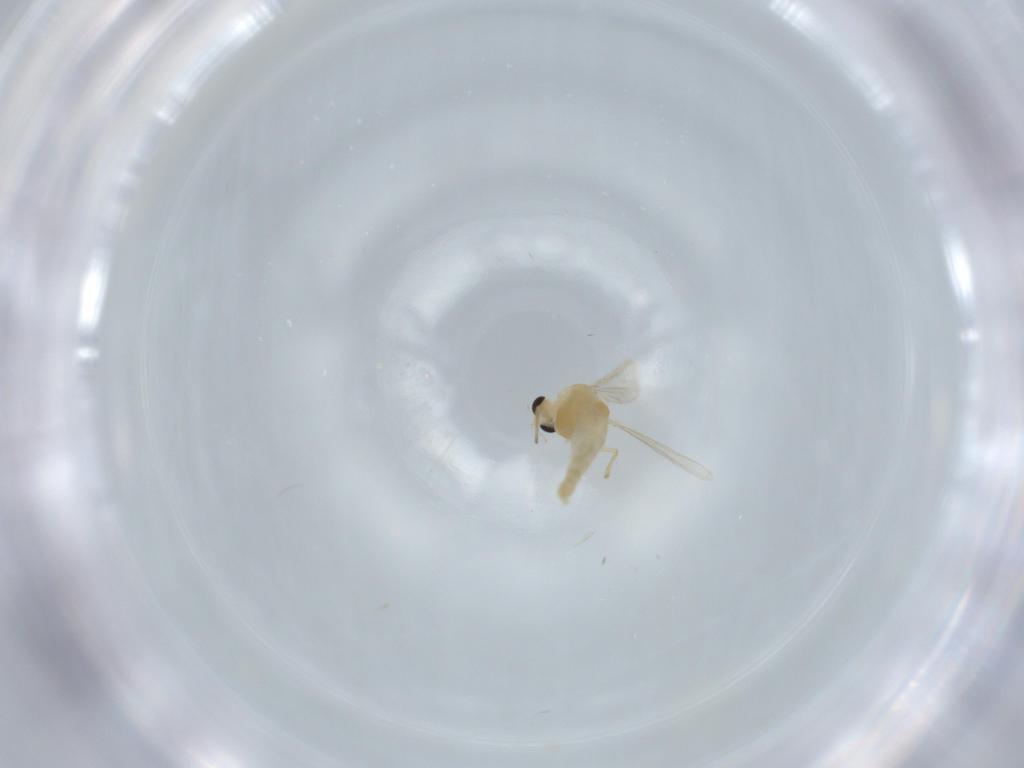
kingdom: Animalia
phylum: Arthropoda
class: Insecta
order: Diptera
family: Chironomidae
